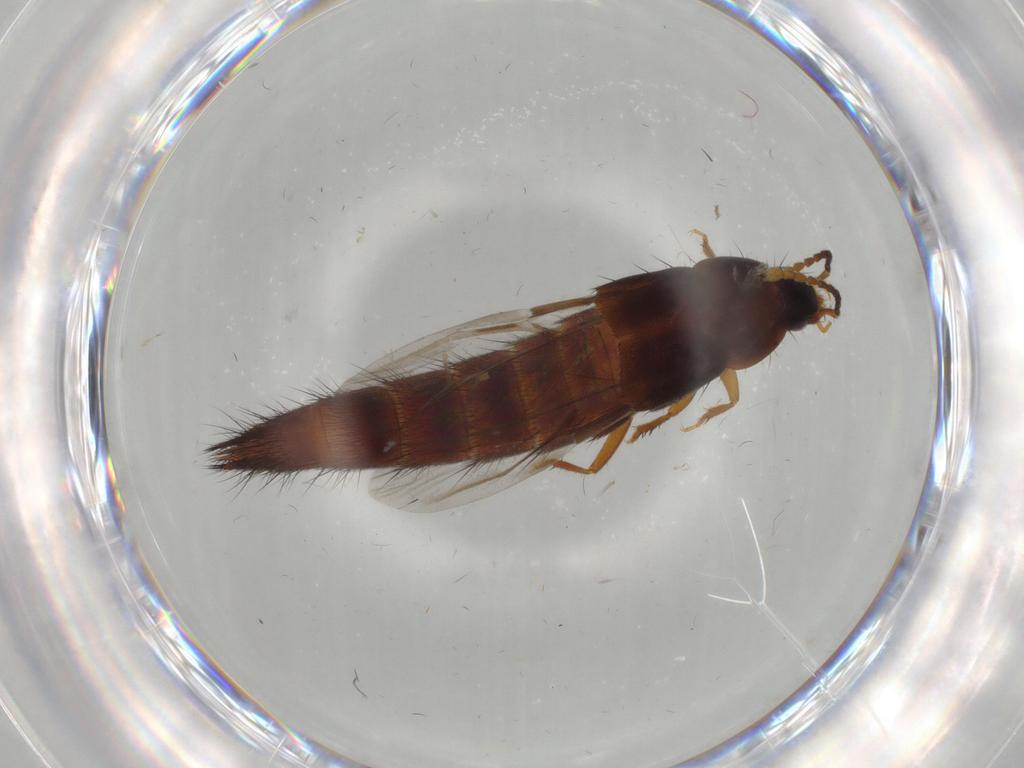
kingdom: Animalia
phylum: Arthropoda
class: Insecta
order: Coleoptera
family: Staphylinidae
